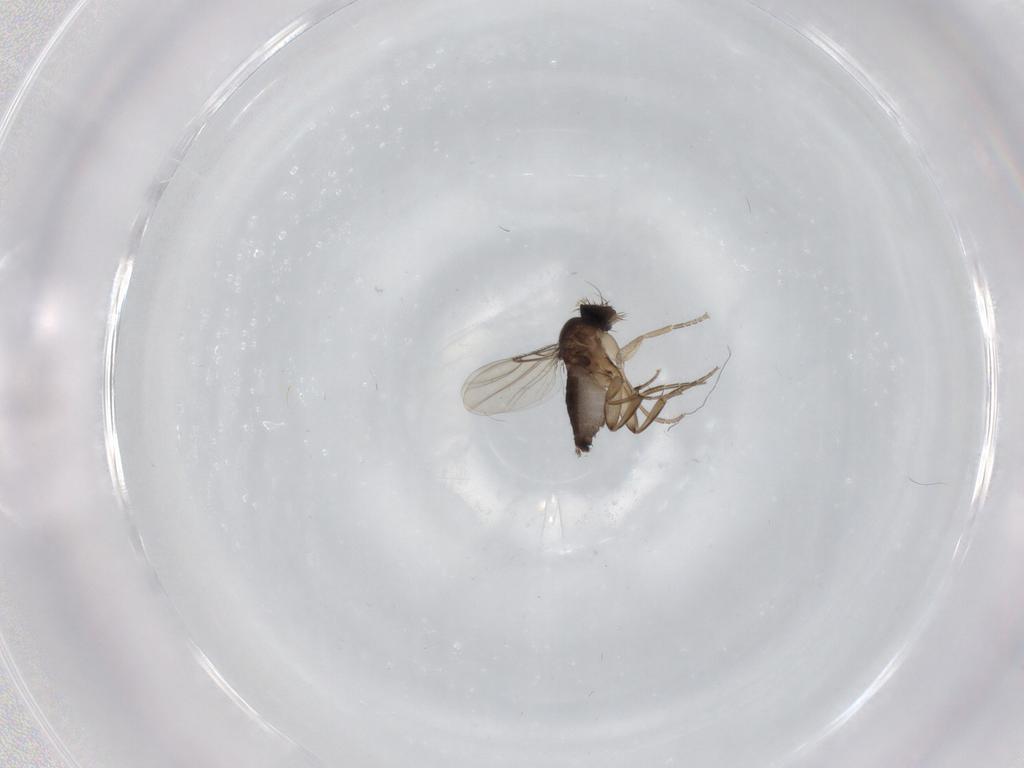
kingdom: Animalia
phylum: Arthropoda
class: Insecta
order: Diptera
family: Phoridae
